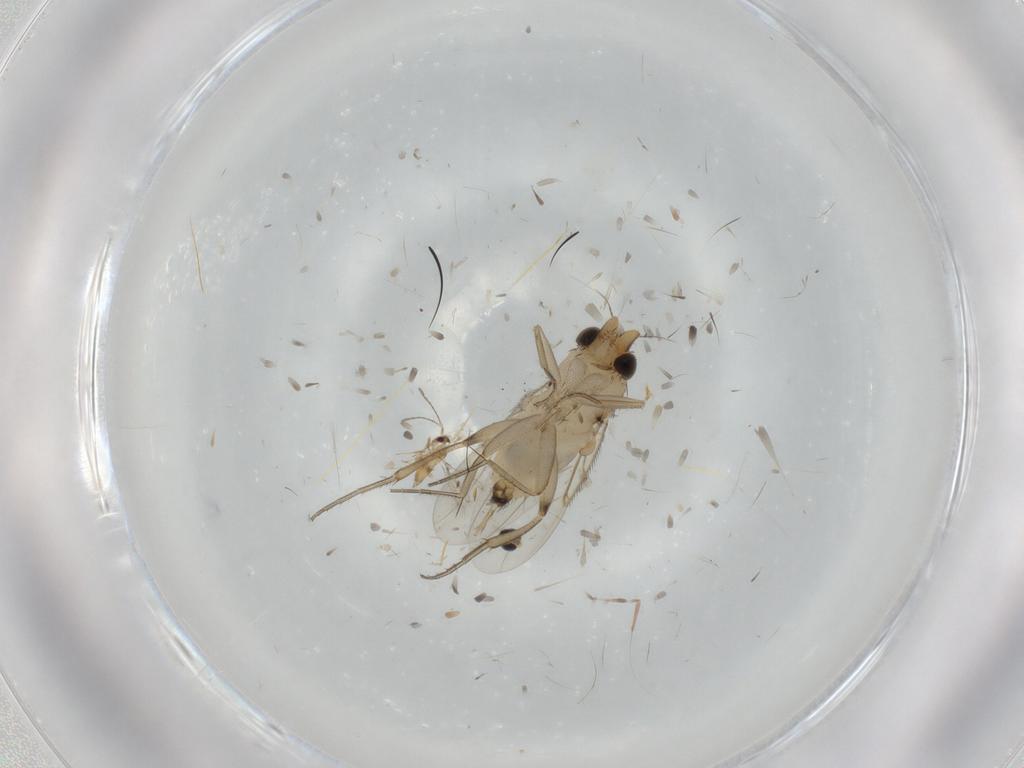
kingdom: Animalia
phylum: Arthropoda
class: Insecta
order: Diptera
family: Phoridae
